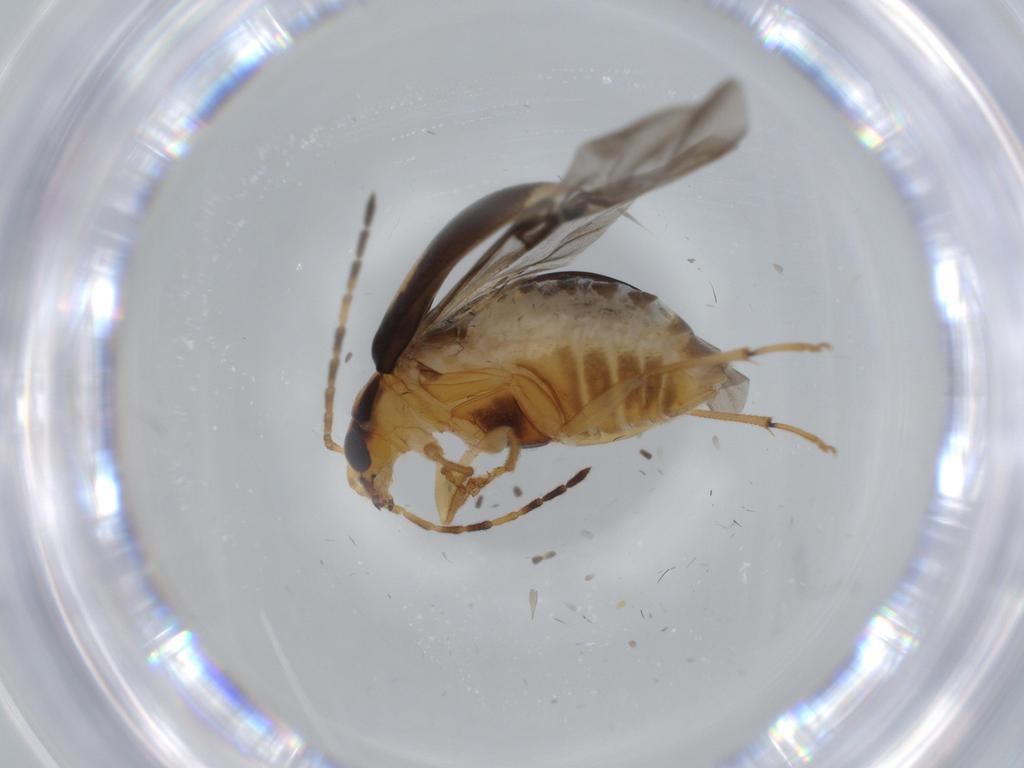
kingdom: Animalia
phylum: Arthropoda
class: Insecta
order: Coleoptera
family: Chrysomelidae
